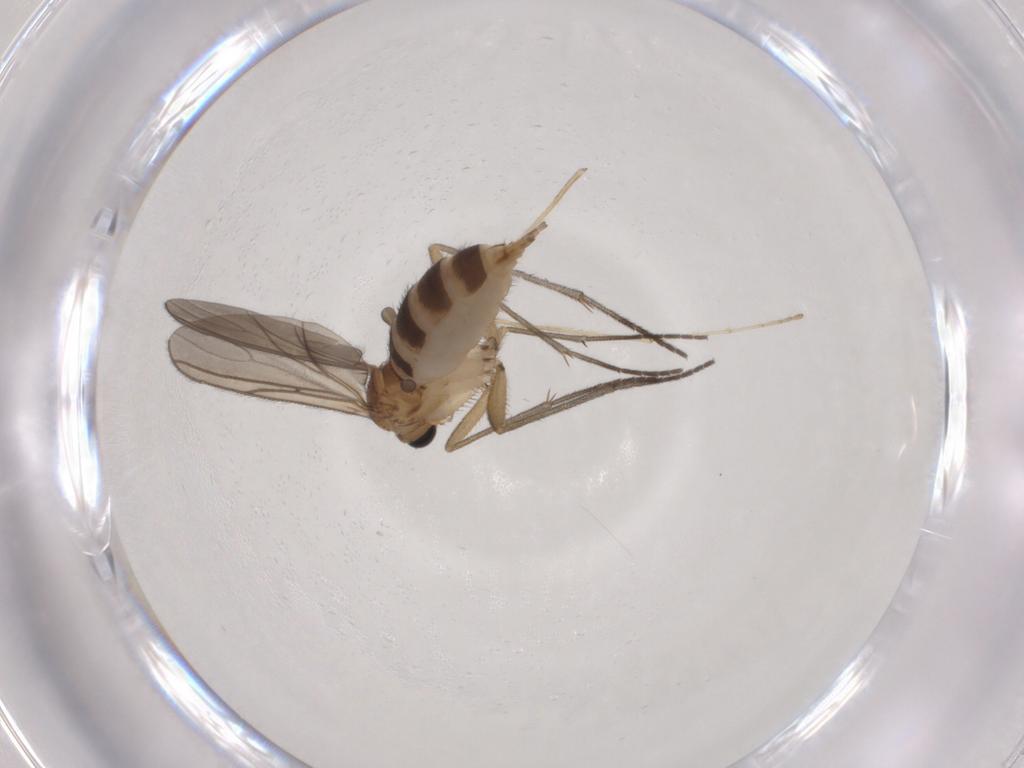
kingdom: Animalia
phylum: Arthropoda
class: Insecta
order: Diptera
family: Sciaridae
